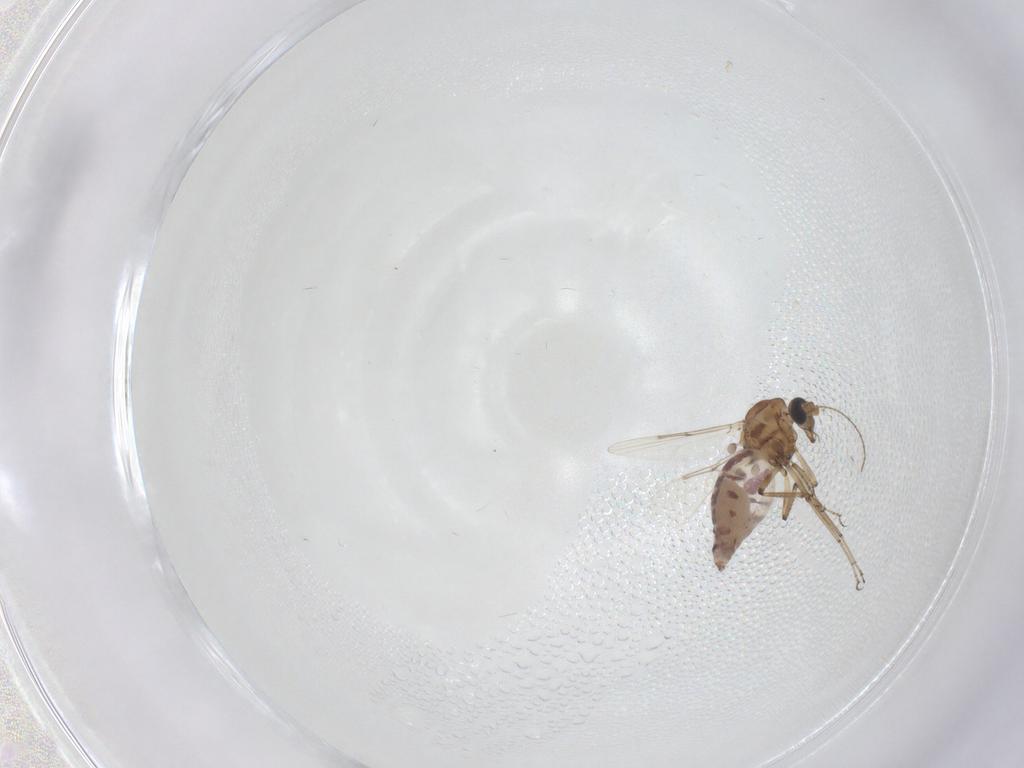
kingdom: Animalia
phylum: Arthropoda
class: Insecta
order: Diptera
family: Ceratopogonidae
